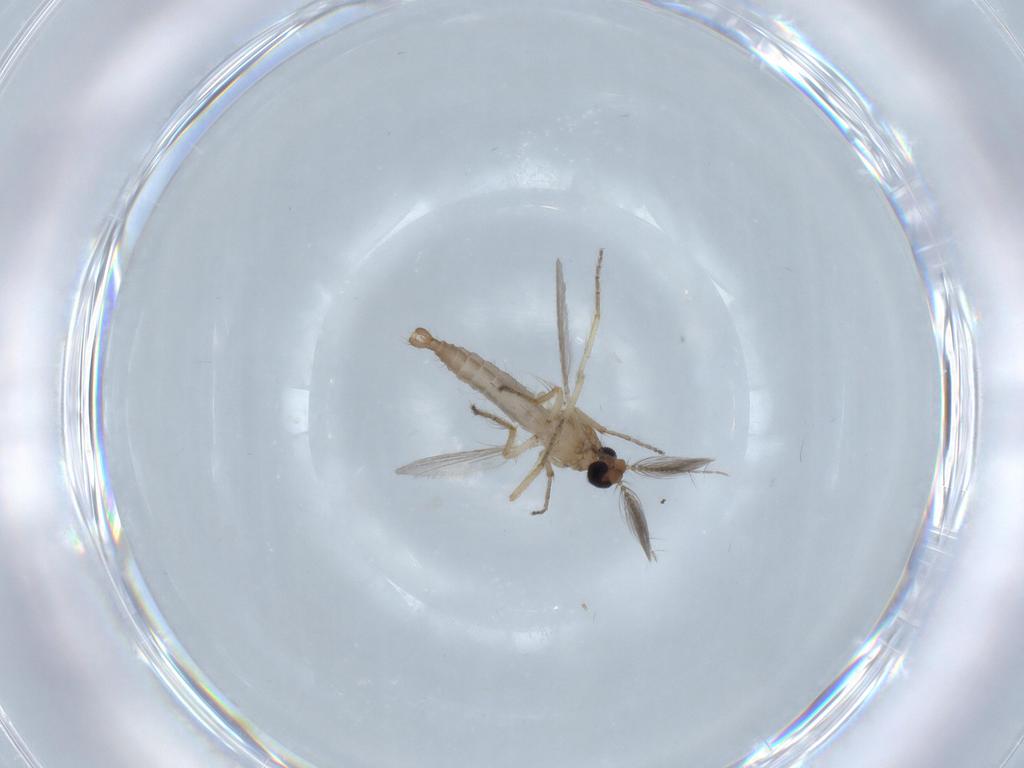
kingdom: Animalia
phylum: Arthropoda
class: Insecta
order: Diptera
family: Ceratopogonidae
